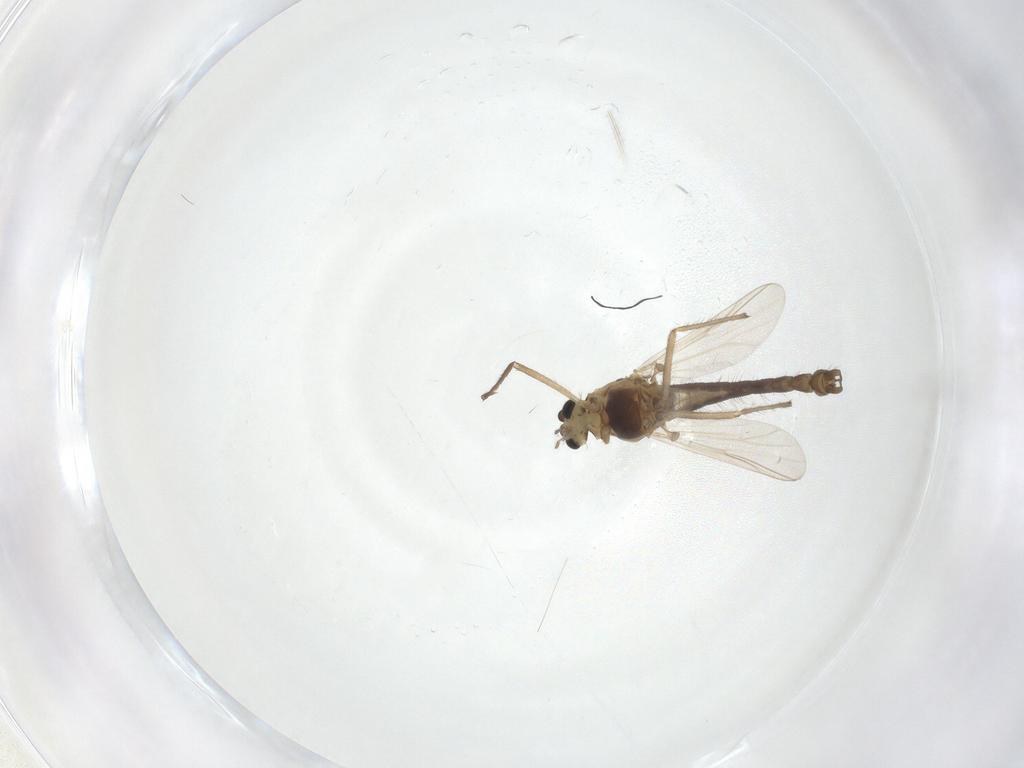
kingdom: Animalia
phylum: Arthropoda
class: Insecta
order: Diptera
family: Chironomidae
